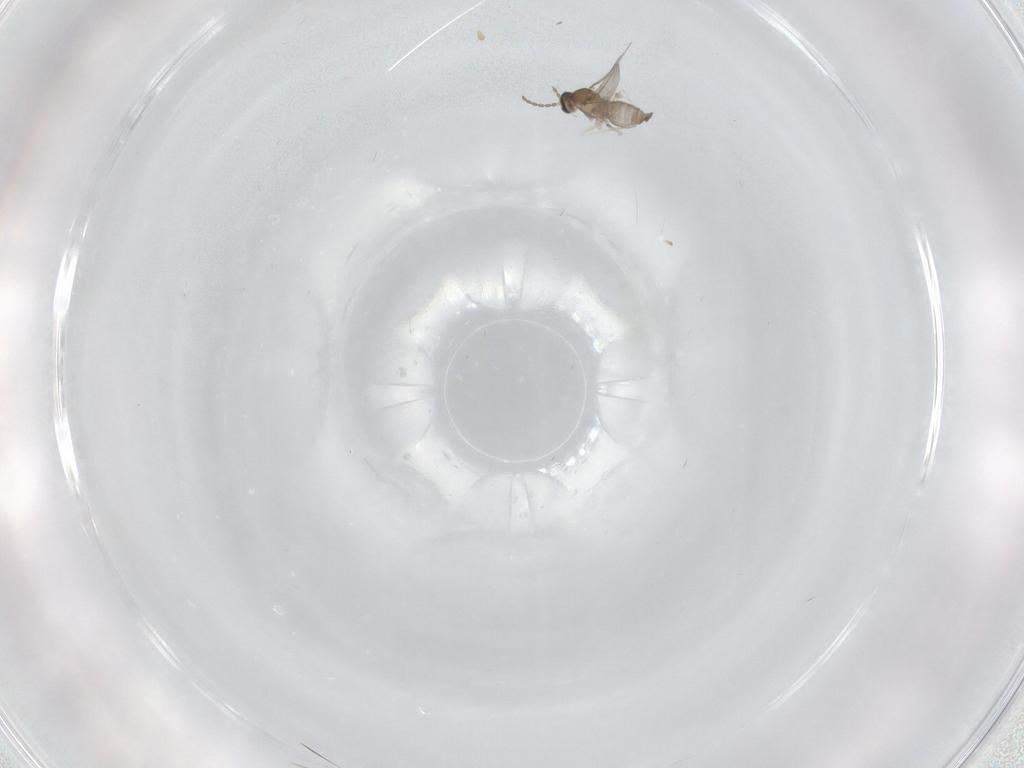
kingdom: Animalia
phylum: Arthropoda
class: Insecta
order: Diptera
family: Cecidomyiidae
